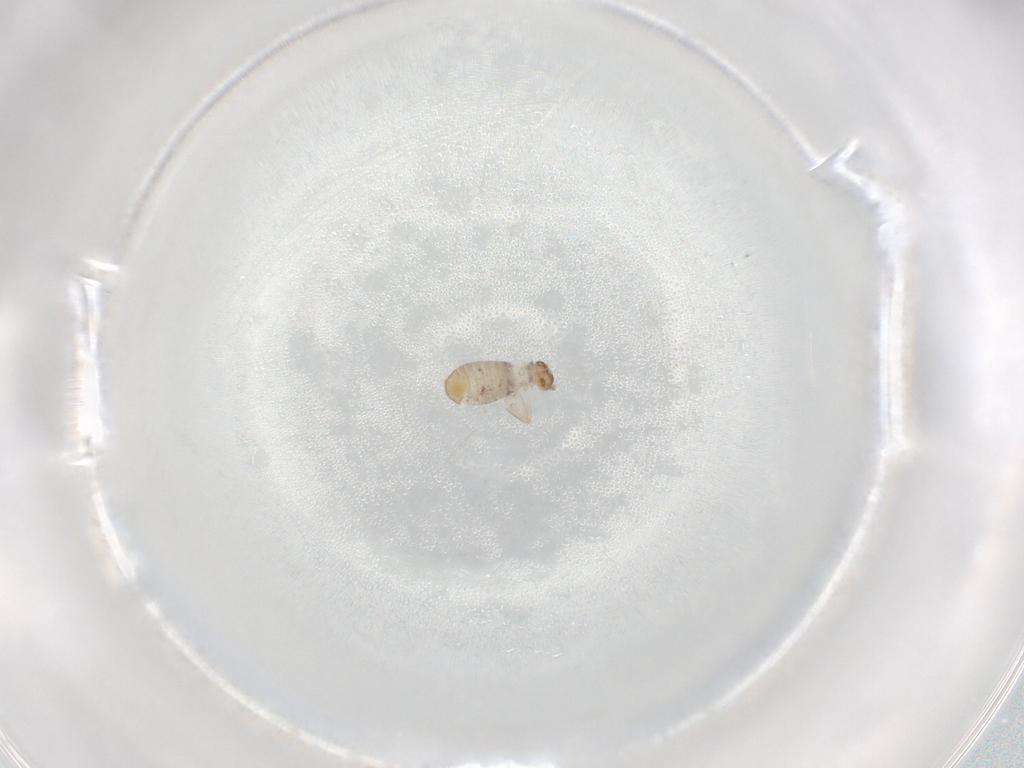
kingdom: Animalia
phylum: Arthropoda
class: Insecta
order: Psocodea
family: Liposcelididae
